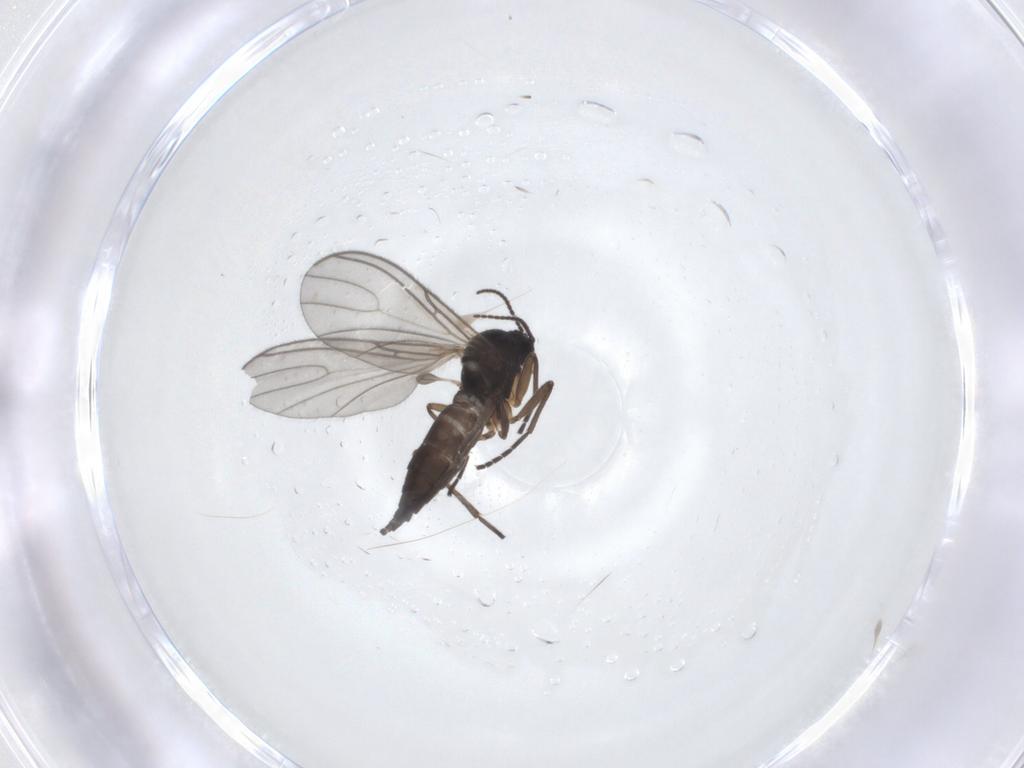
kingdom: Animalia
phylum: Arthropoda
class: Insecta
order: Diptera
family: Sciaridae
